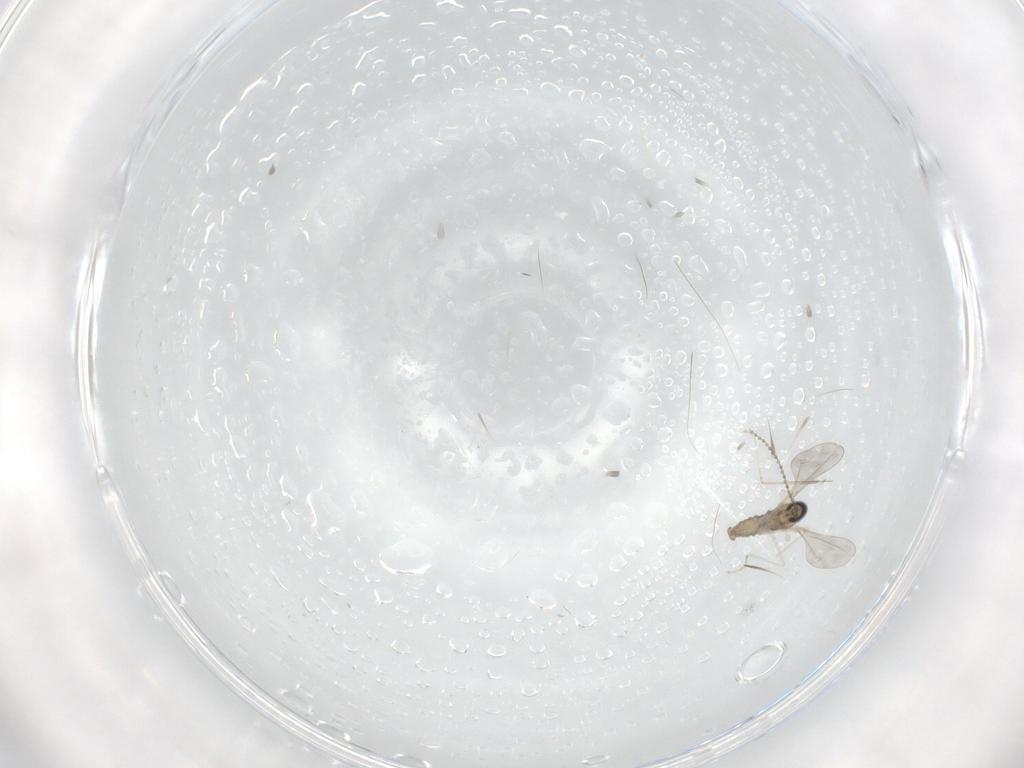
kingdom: Animalia
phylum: Arthropoda
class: Insecta
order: Diptera
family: Cecidomyiidae
